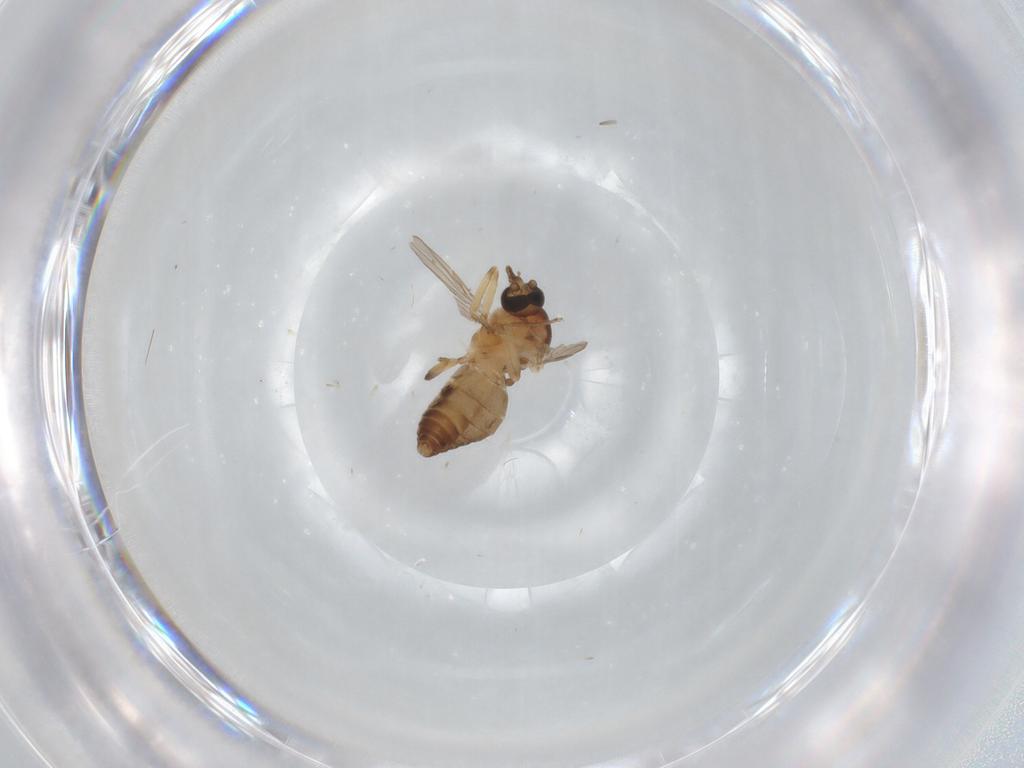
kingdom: Animalia
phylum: Arthropoda
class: Insecta
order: Diptera
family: Ceratopogonidae
